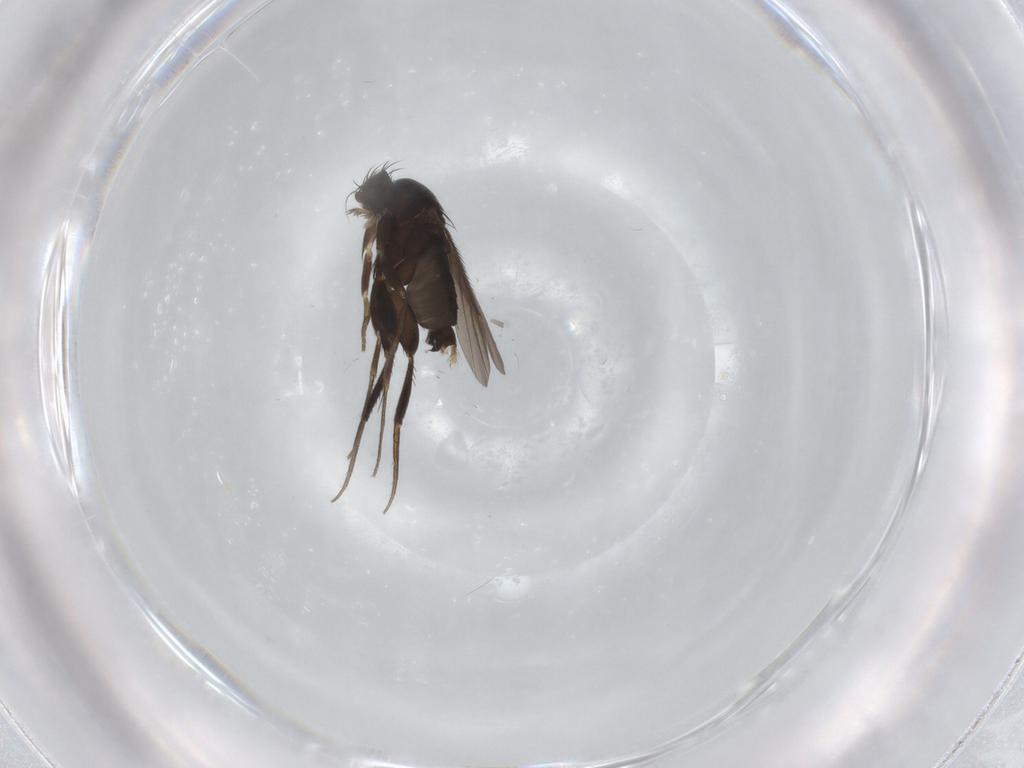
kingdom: Animalia
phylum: Arthropoda
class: Insecta
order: Diptera
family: Phoridae
